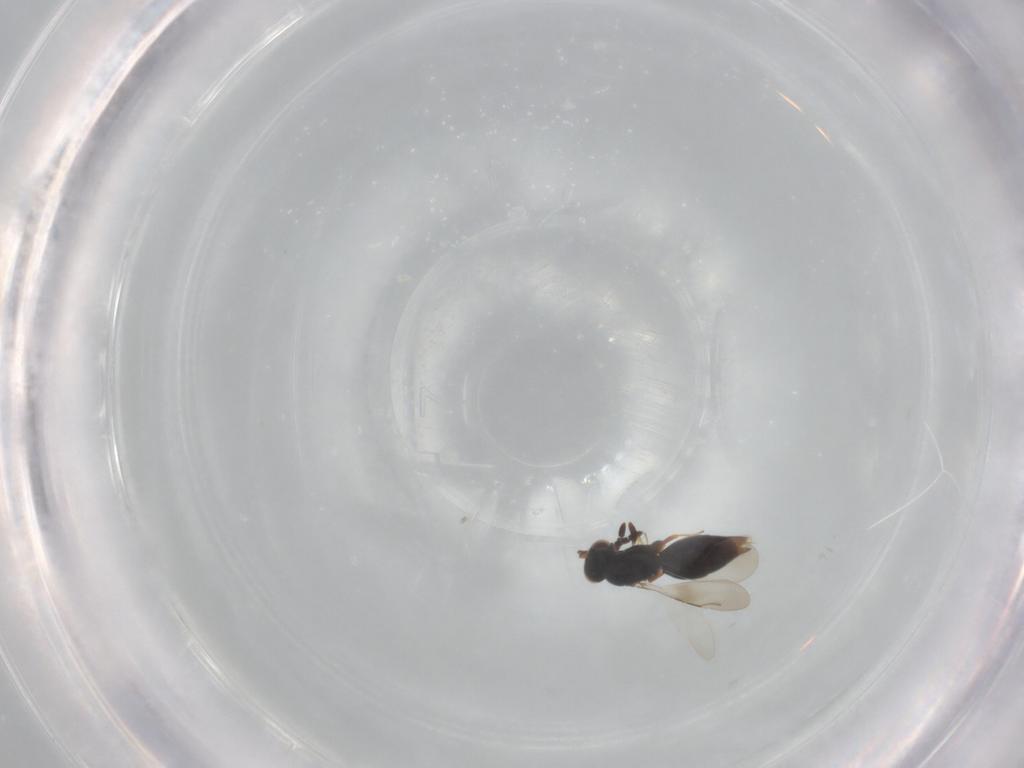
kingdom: Animalia
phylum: Arthropoda
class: Insecta
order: Hymenoptera
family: Ceraphronidae
